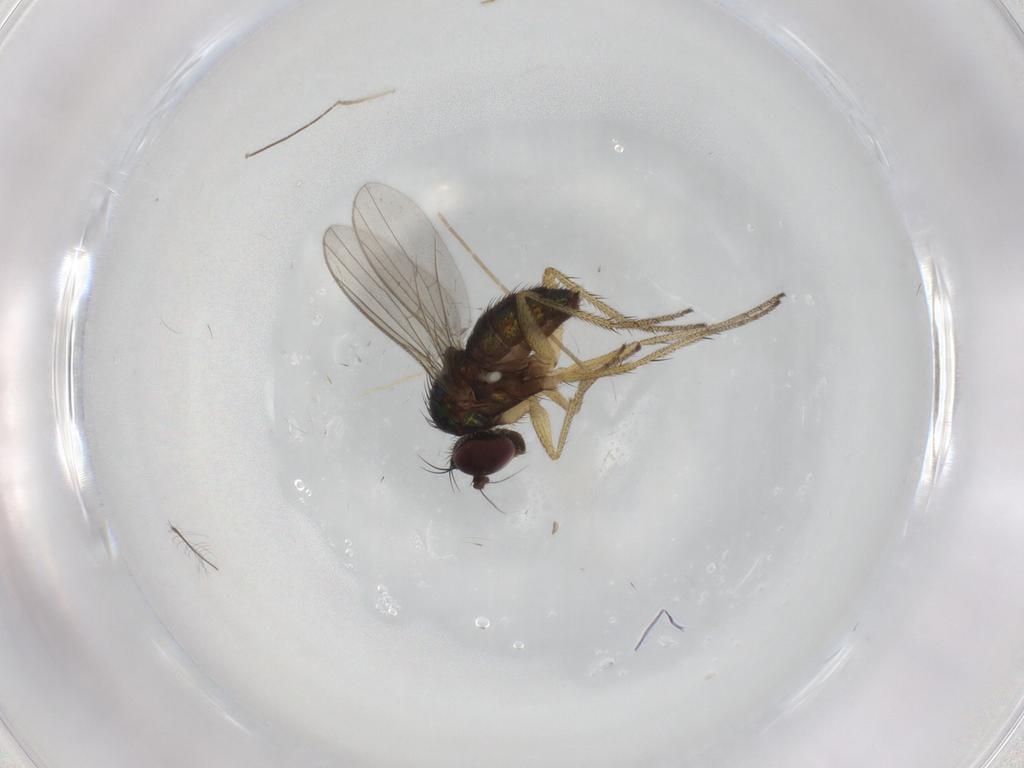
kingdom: Animalia
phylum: Arthropoda
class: Insecta
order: Diptera
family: Chironomidae
